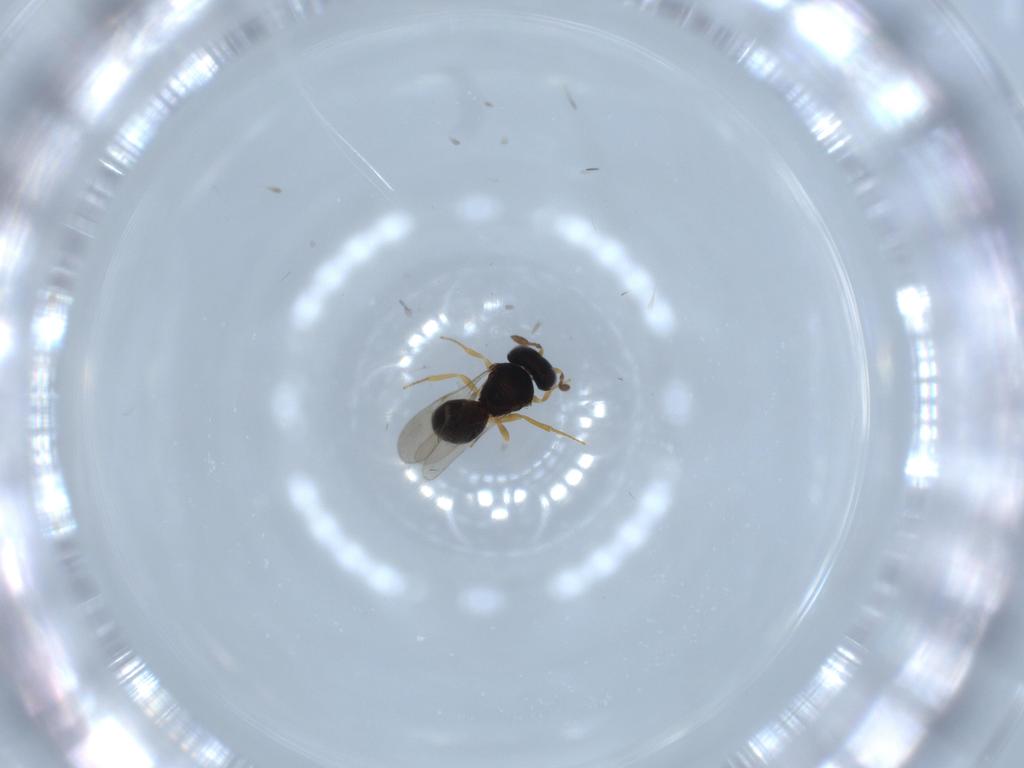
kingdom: Animalia
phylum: Arthropoda
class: Insecta
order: Hymenoptera
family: Scelionidae
